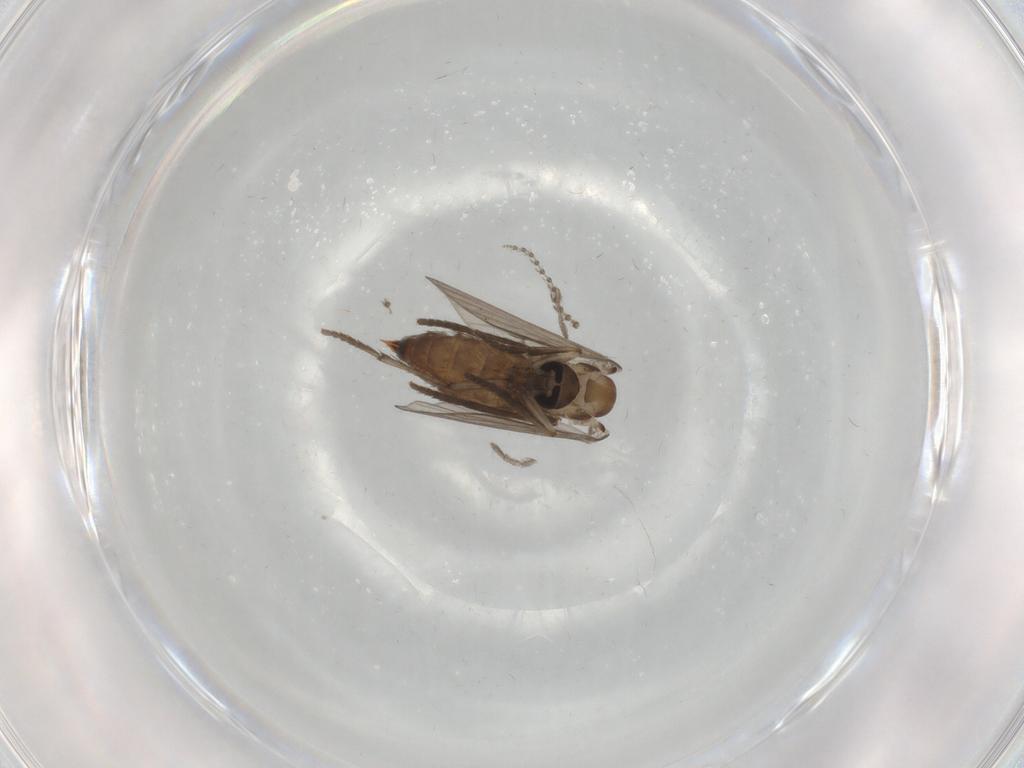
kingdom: Animalia
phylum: Arthropoda
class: Insecta
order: Diptera
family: Psychodidae
